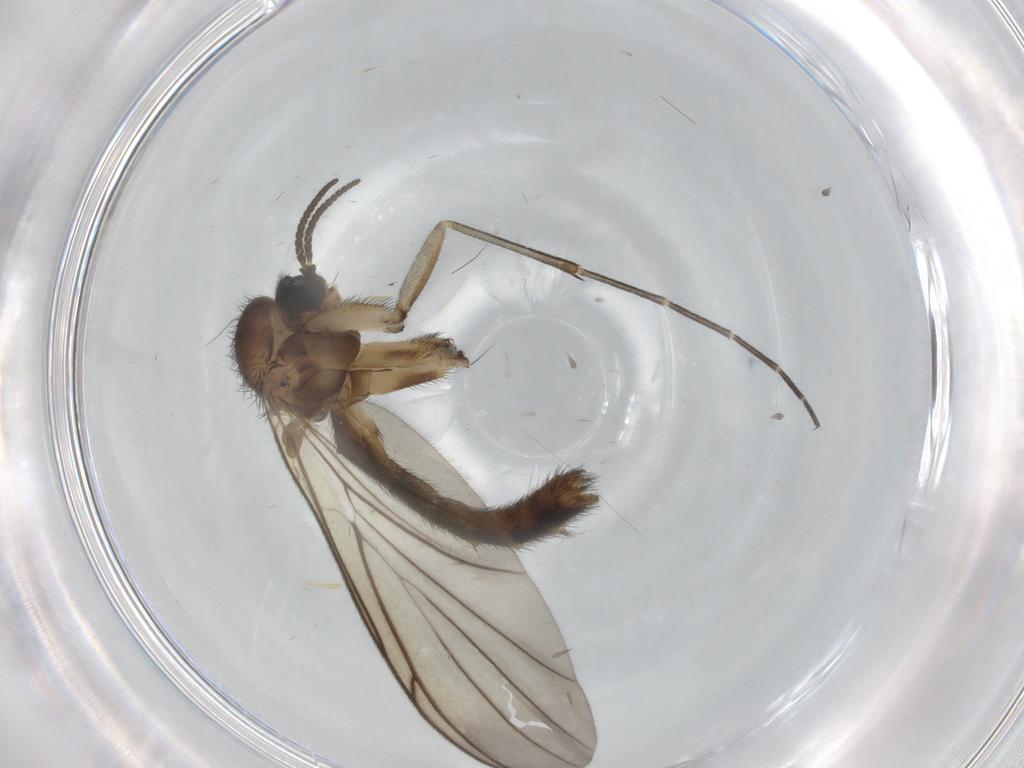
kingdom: Animalia
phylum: Arthropoda
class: Insecta
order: Diptera
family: Keroplatidae
